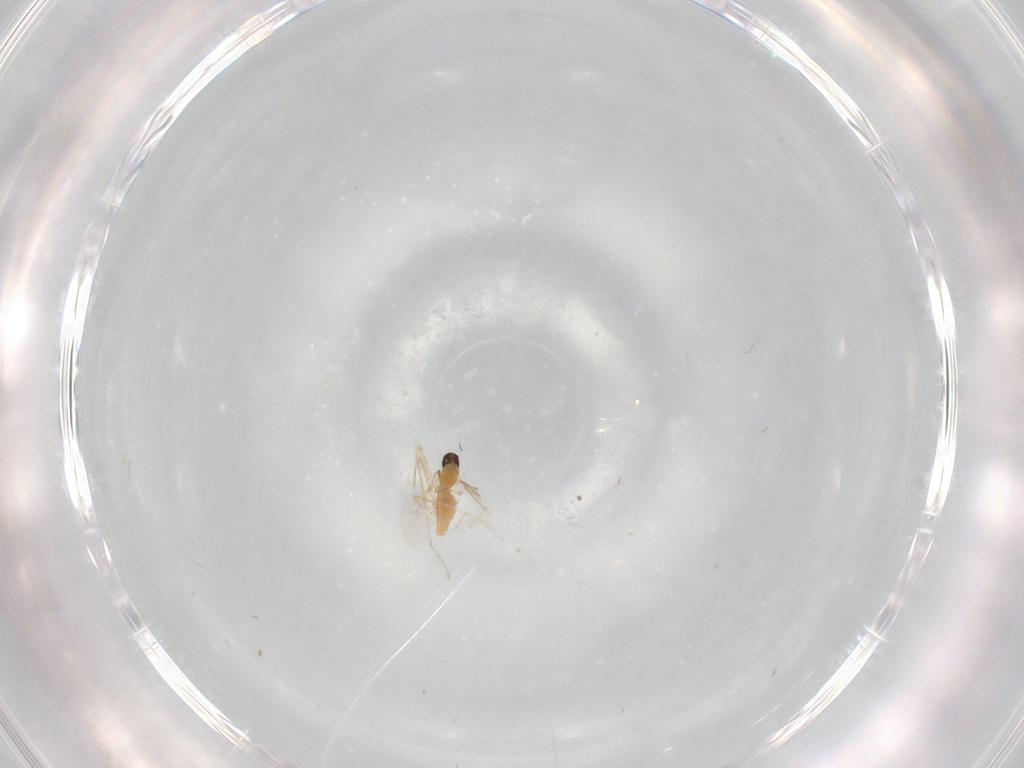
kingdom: Animalia
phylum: Arthropoda
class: Insecta
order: Diptera
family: Cecidomyiidae
